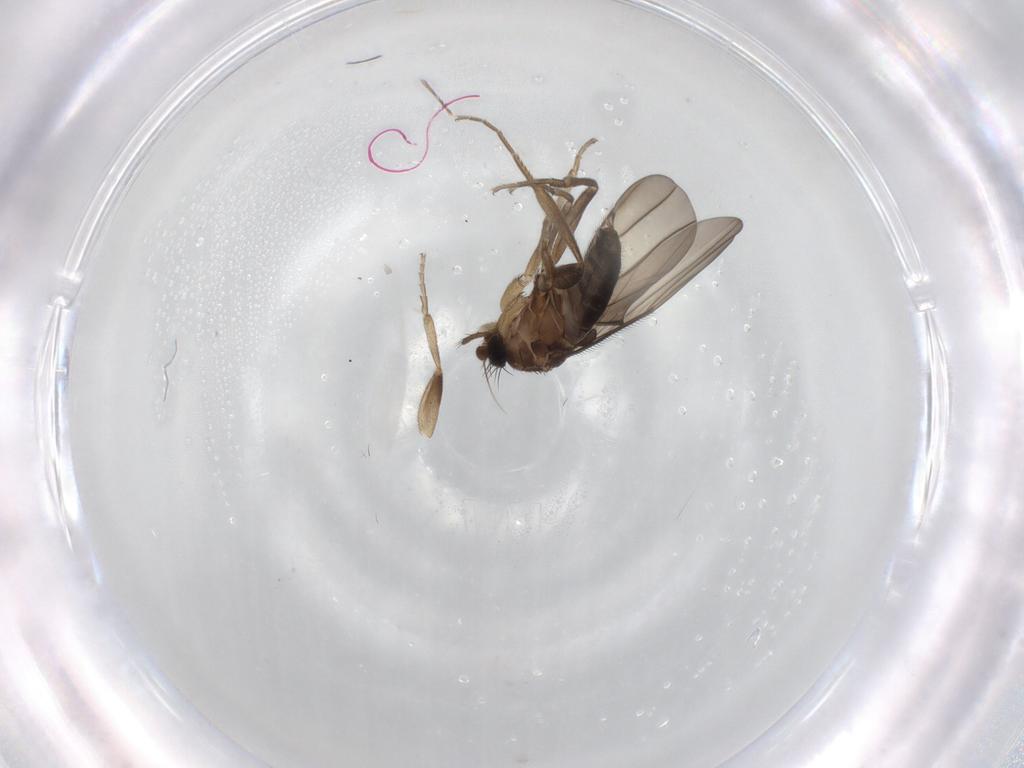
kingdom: Animalia
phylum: Arthropoda
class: Insecta
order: Diptera
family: Phoridae
